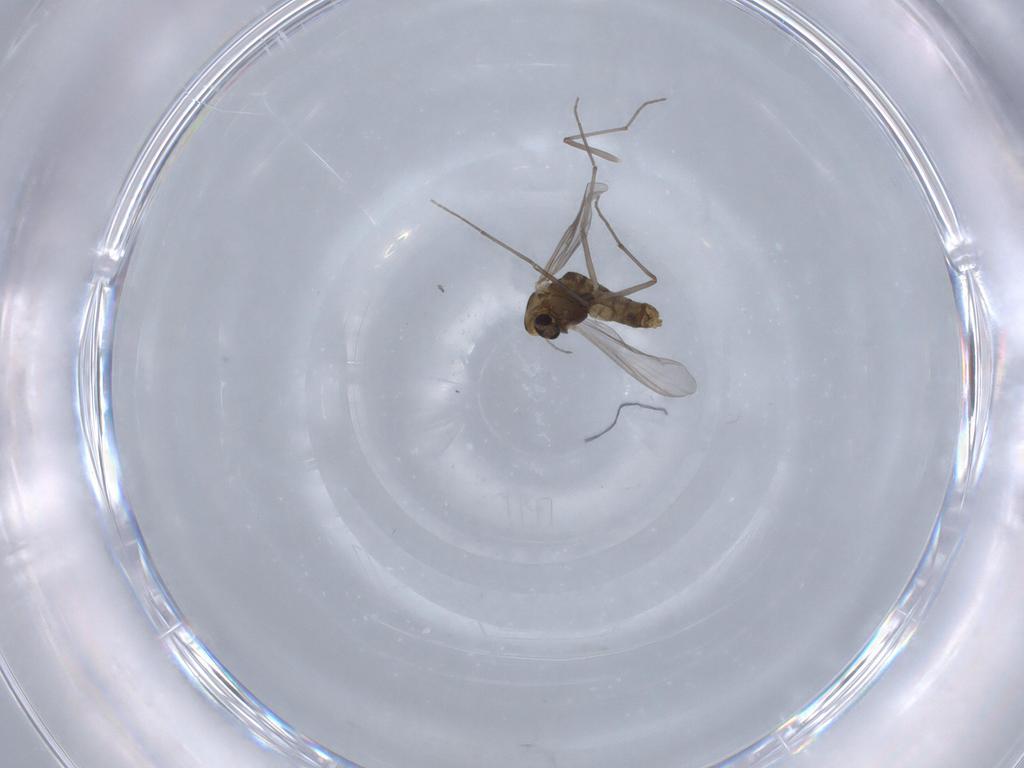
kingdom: Animalia
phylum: Arthropoda
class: Insecta
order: Diptera
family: Chironomidae
